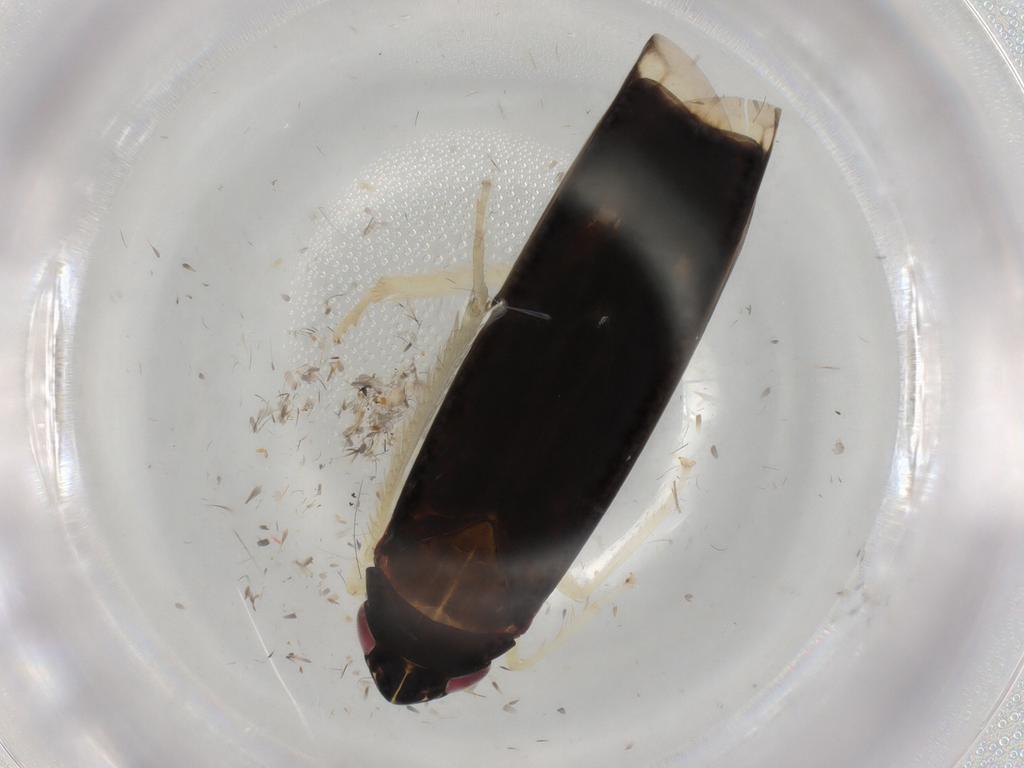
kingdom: Animalia
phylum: Arthropoda
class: Insecta
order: Hemiptera
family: Cicadellidae
